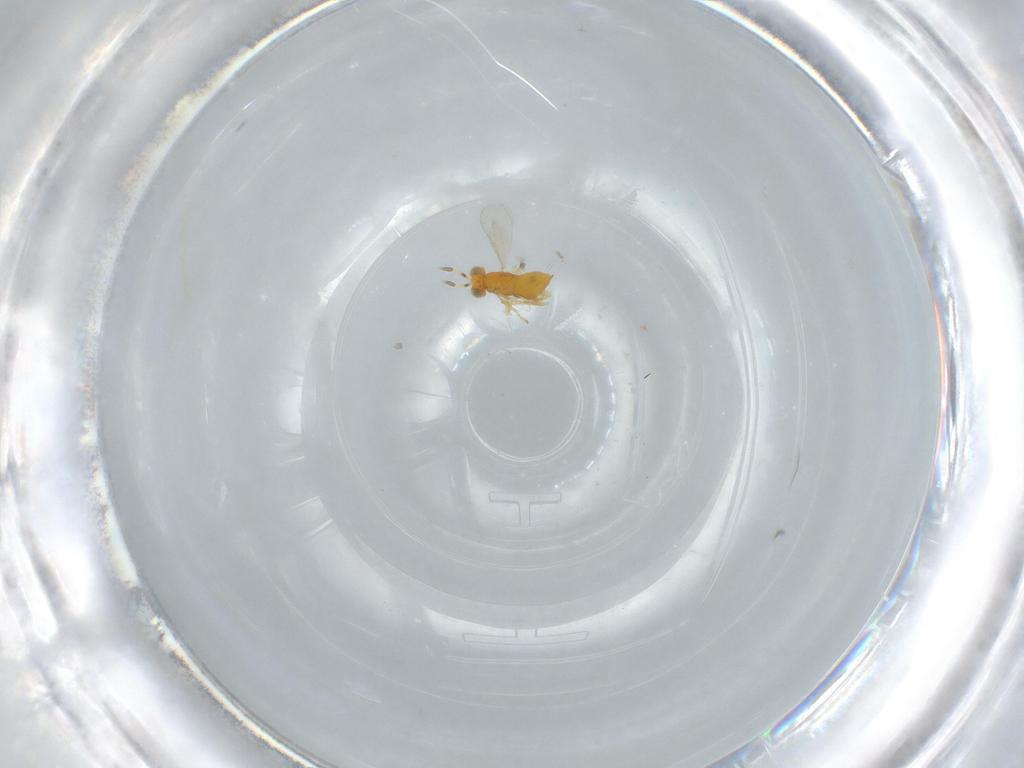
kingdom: Animalia
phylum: Arthropoda
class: Insecta
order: Hymenoptera
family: Aphelinidae
